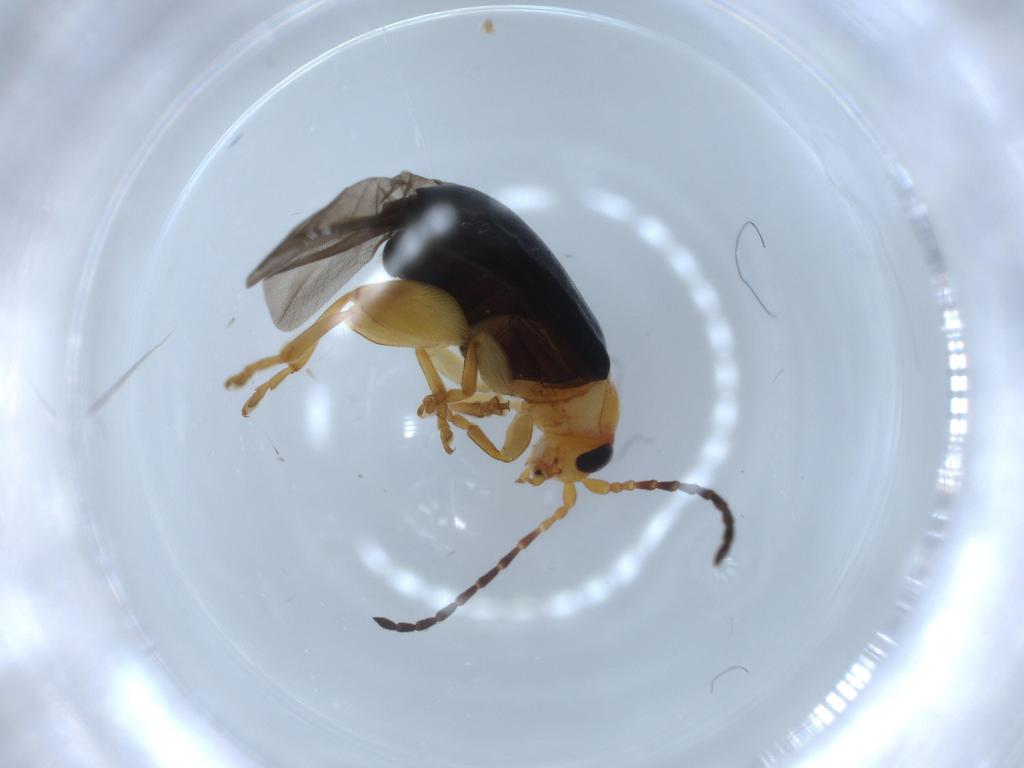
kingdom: Animalia
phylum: Arthropoda
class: Insecta
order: Coleoptera
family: Chrysomelidae
